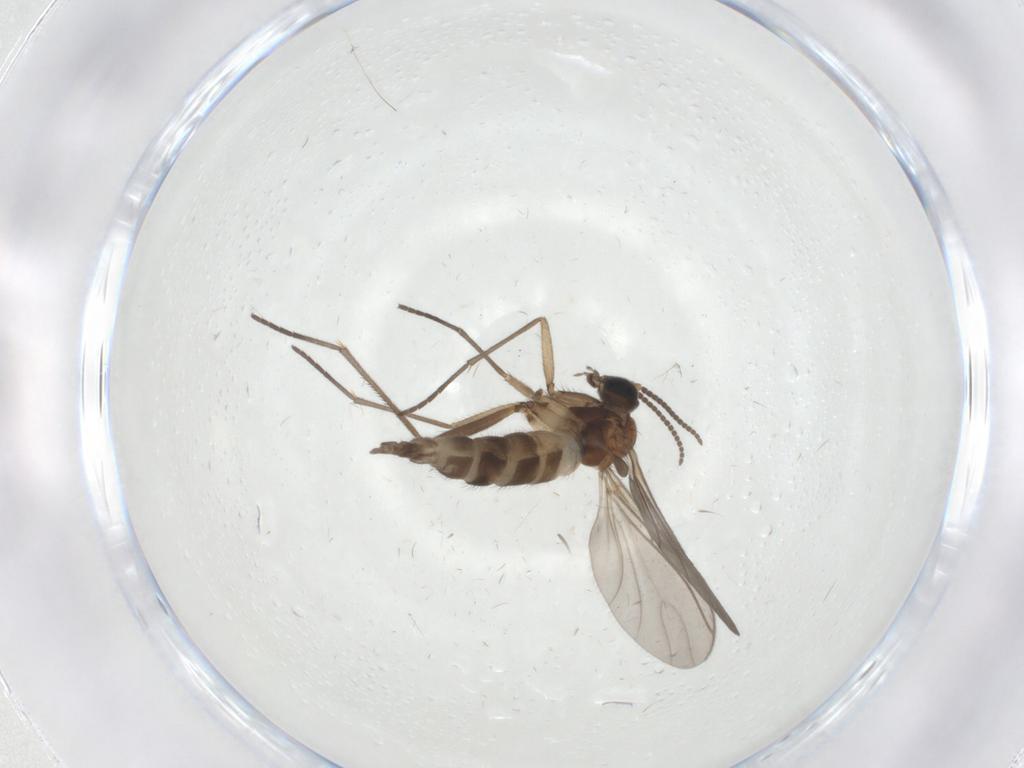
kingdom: Animalia
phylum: Arthropoda
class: Insecta
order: Diptera
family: Sciaridae
